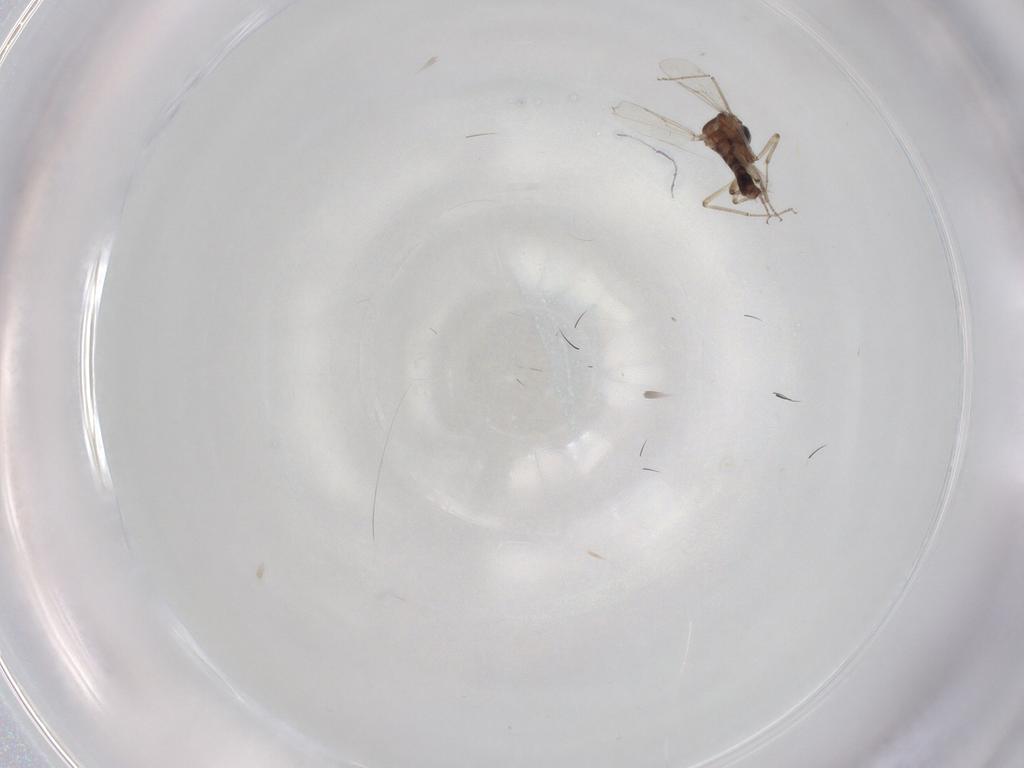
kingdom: Animalia
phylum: Arthropoda
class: Insecta
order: Diptera
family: Ceratopogonidae
